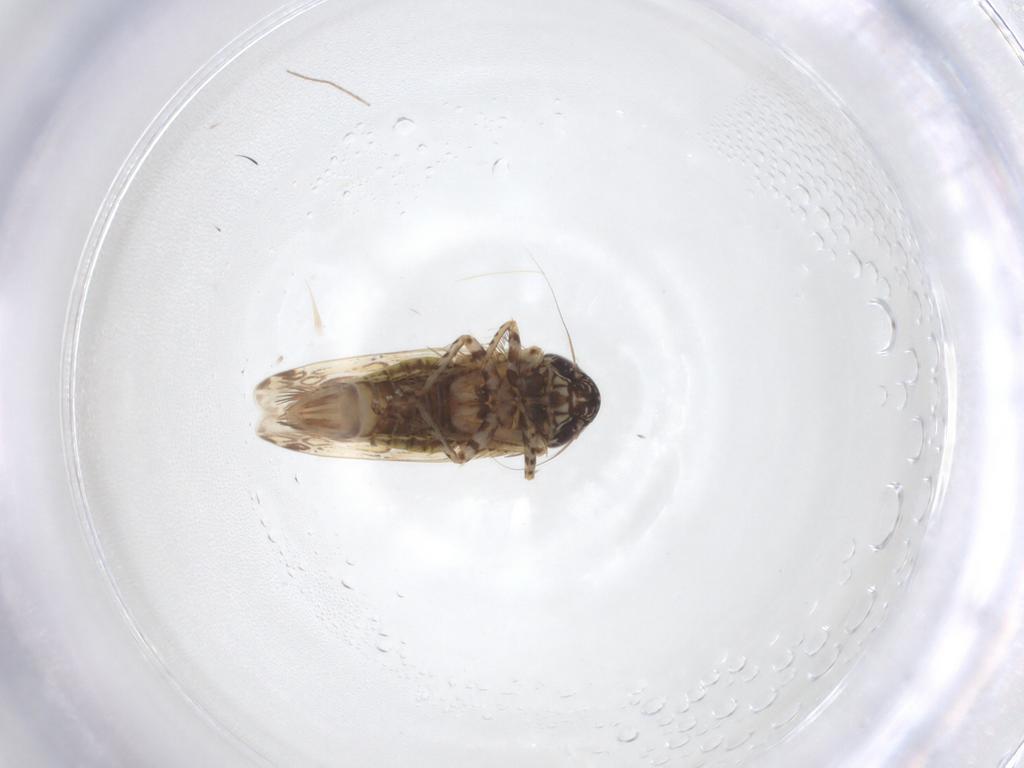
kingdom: Animalia
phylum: Arthropoda
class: Insecta
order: Hemiptera
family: Cicadellidae
